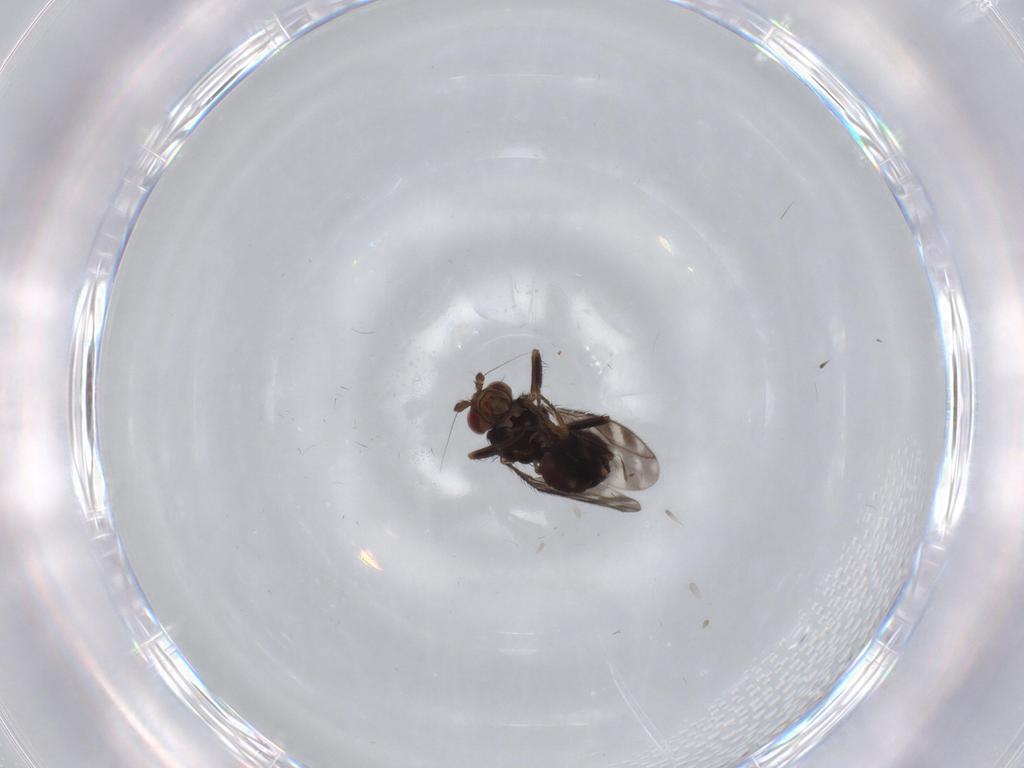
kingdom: Animalia
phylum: Arthropoda
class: Insecta
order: Diptera
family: Sphaeroceridae
